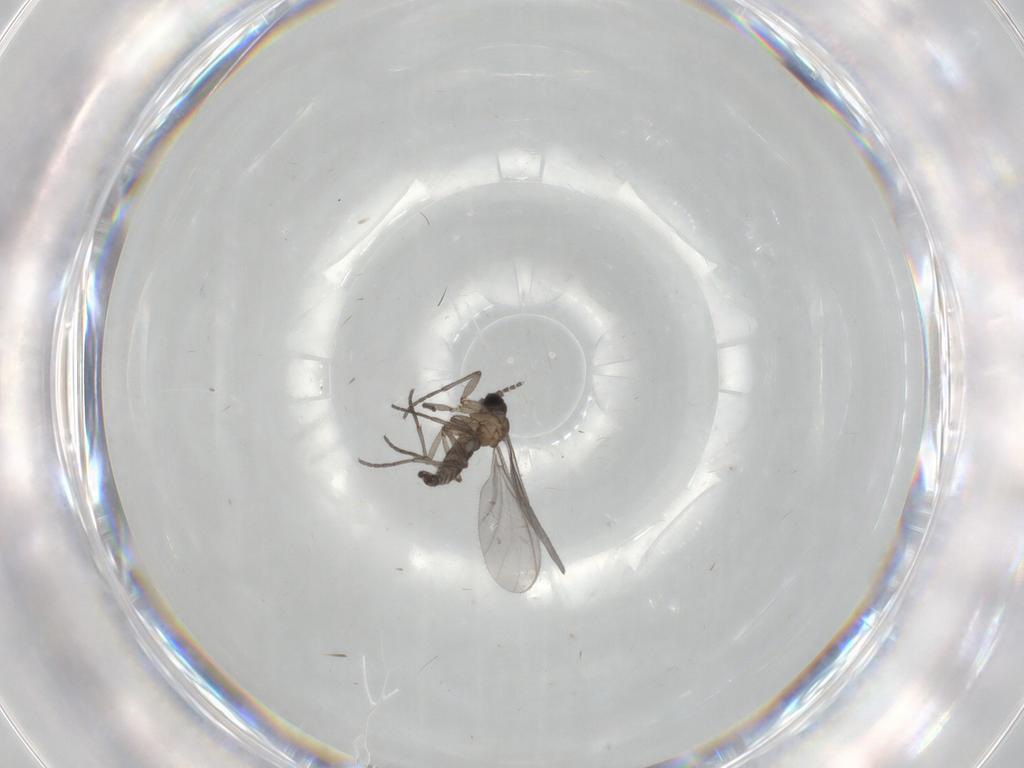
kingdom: Animalia
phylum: Arthropoda
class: Insecta
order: Diptera
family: Sciaridae
